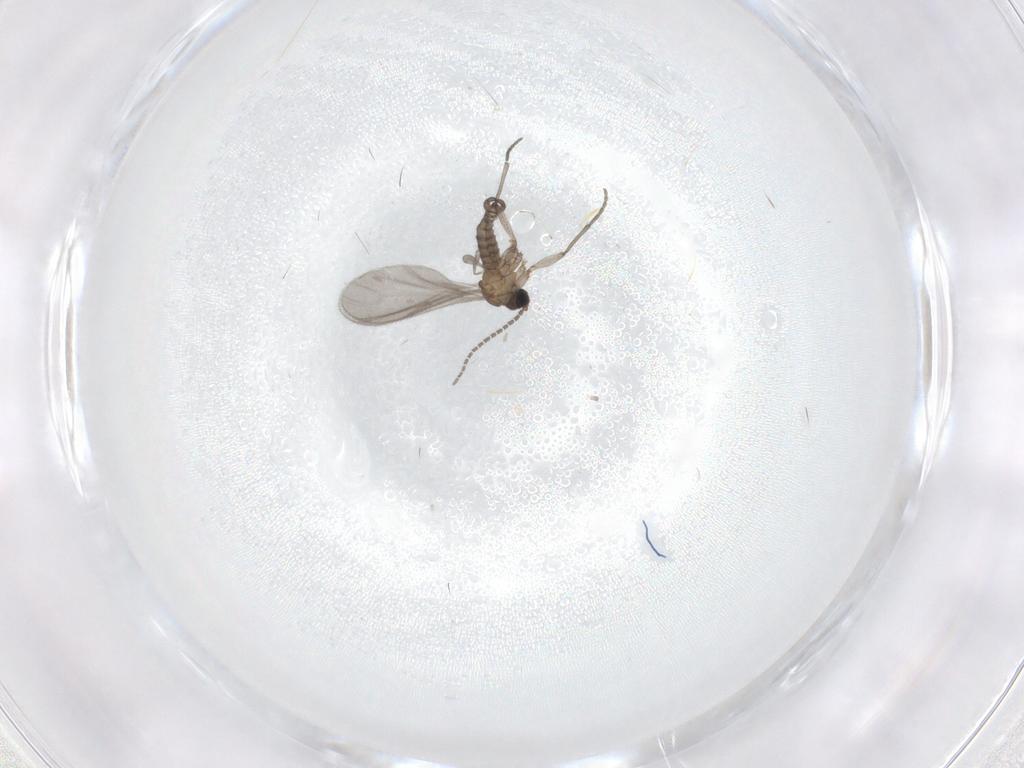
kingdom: Animalia
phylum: Arthropoda
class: Insecta
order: Diptera
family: Sciaridae
